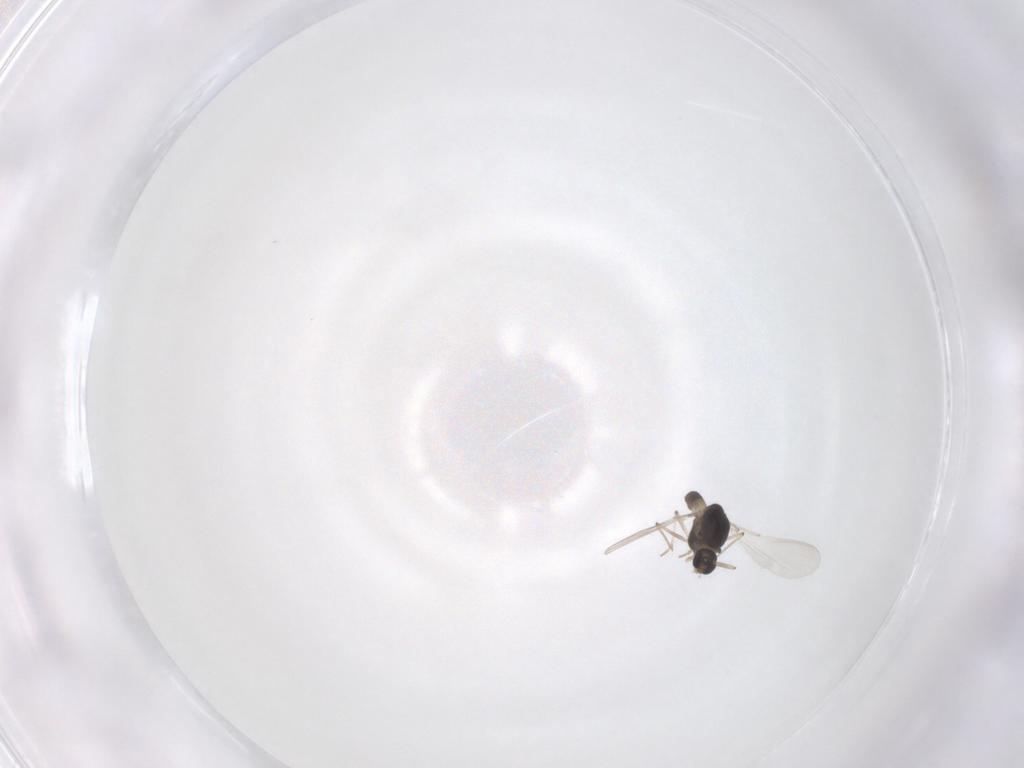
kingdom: Animalia
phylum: Arthropoda
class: Insecta
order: Diptera
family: Chironomidae
